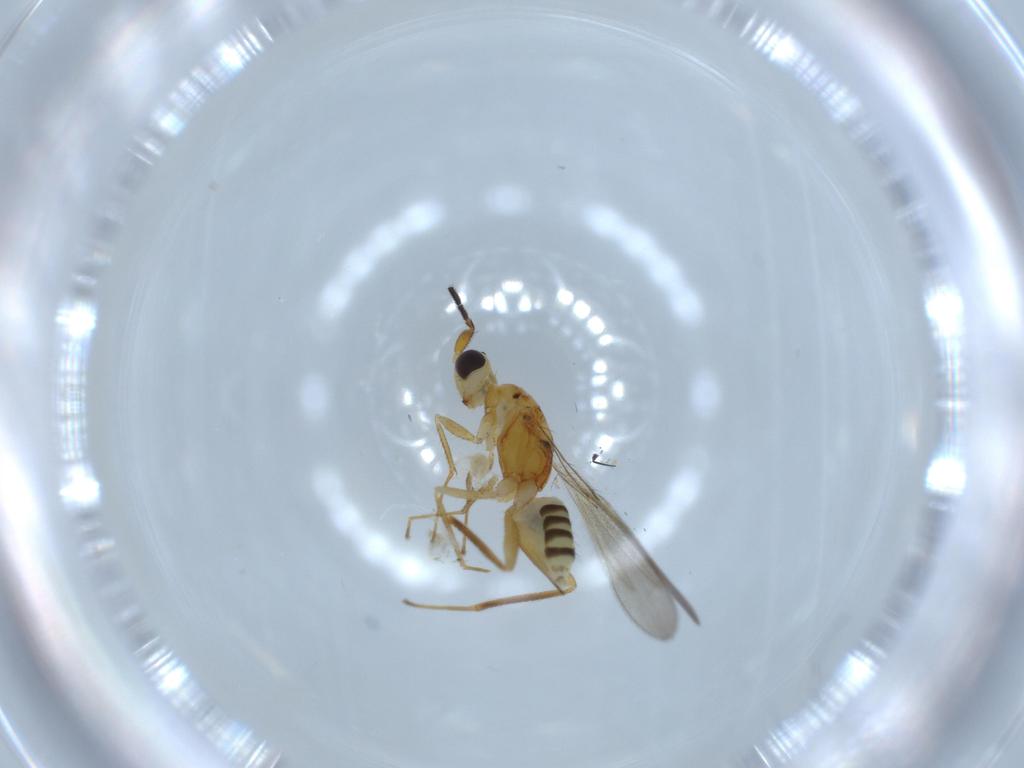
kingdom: Animalia
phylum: Arthropoda
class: Insecta
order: Hymenoptera
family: Mymaridae
